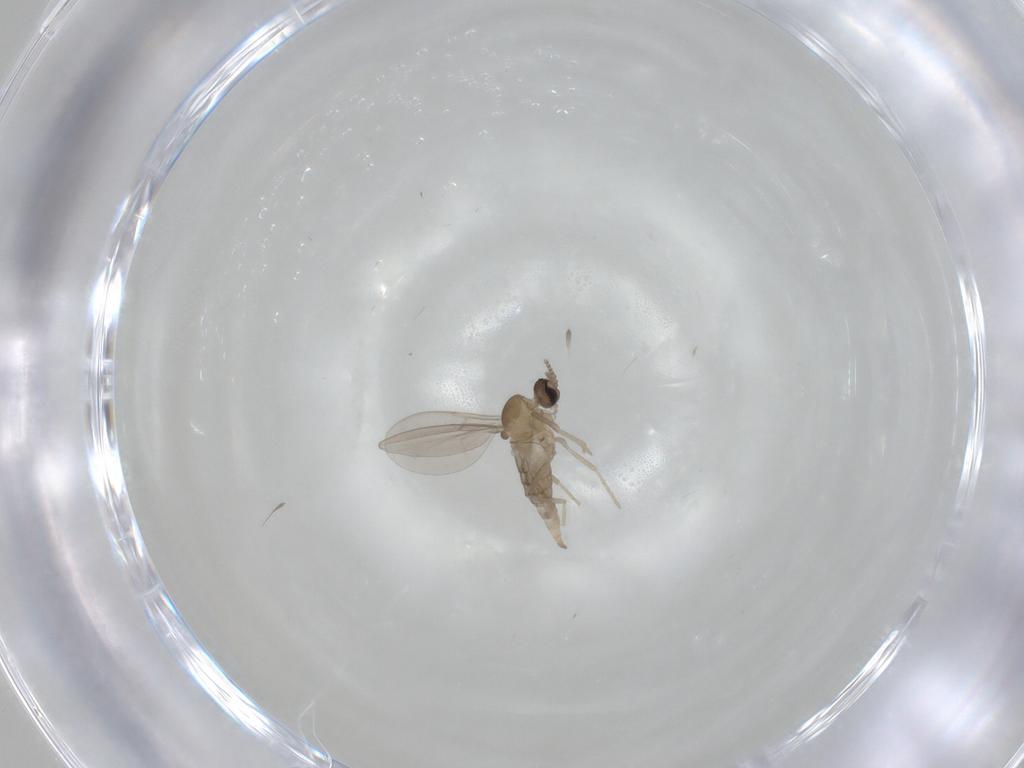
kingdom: Animalia
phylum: Arthropoda
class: Insecta
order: Diptera
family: Cecidomyiidae
